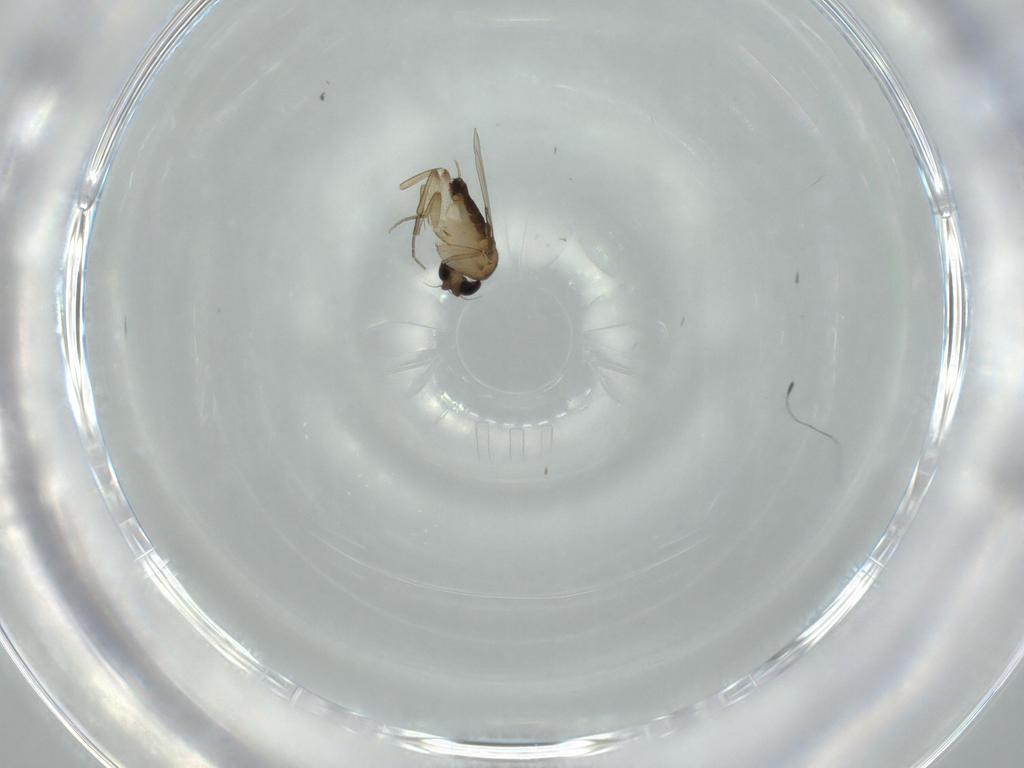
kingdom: Animalia
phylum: Arthropoda
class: Insecta
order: Diptera
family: Phoridae
